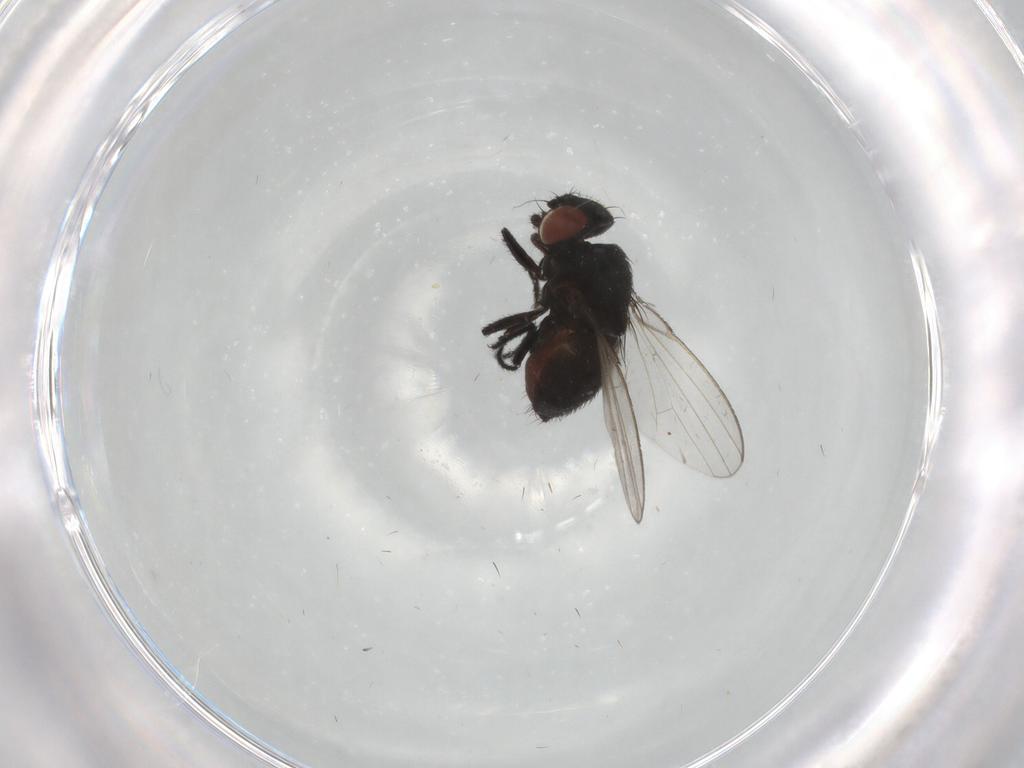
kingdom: Animalia
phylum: Arthropoda
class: Insecta
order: Diptera
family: Milichiidae
